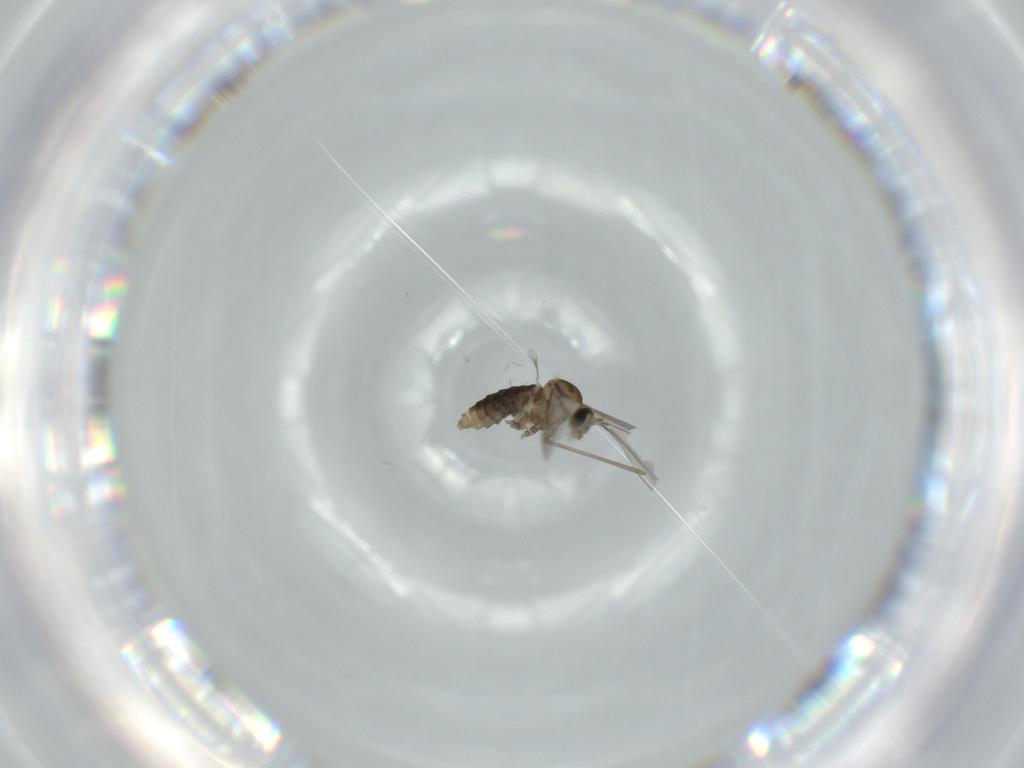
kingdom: Animalia
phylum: Arthropoda
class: Insecta
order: Diptera
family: Cecidomyiidae
